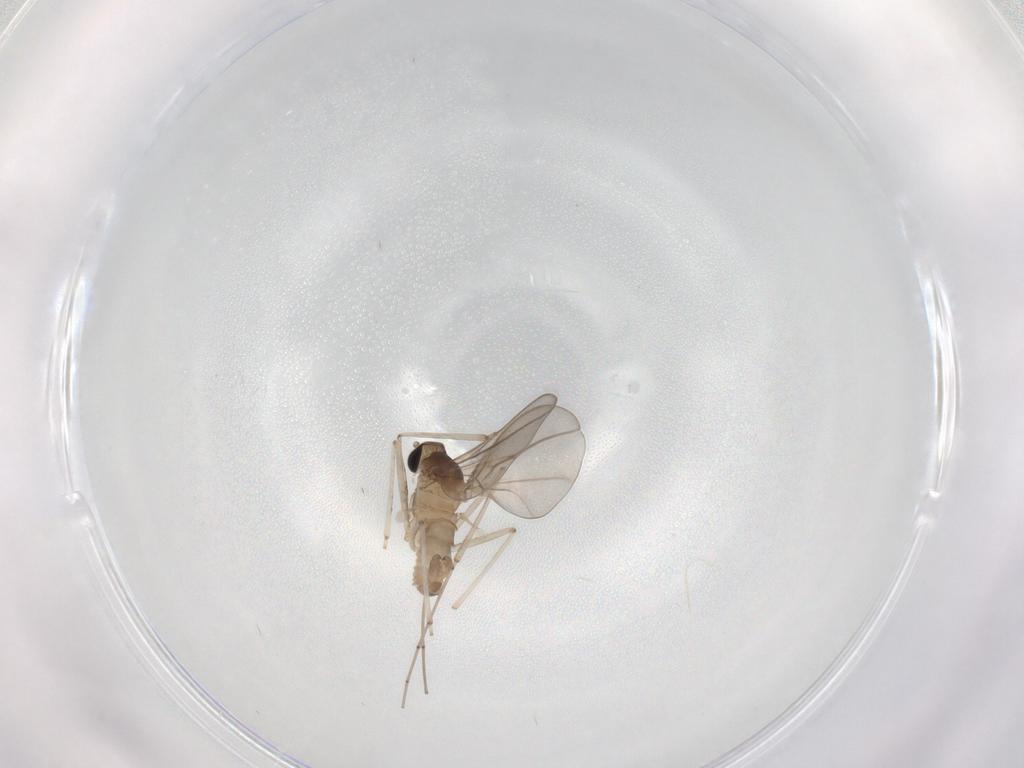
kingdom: Animalia
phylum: Arthropoda
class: Insecta
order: Diptera
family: Cecidomyiidae
